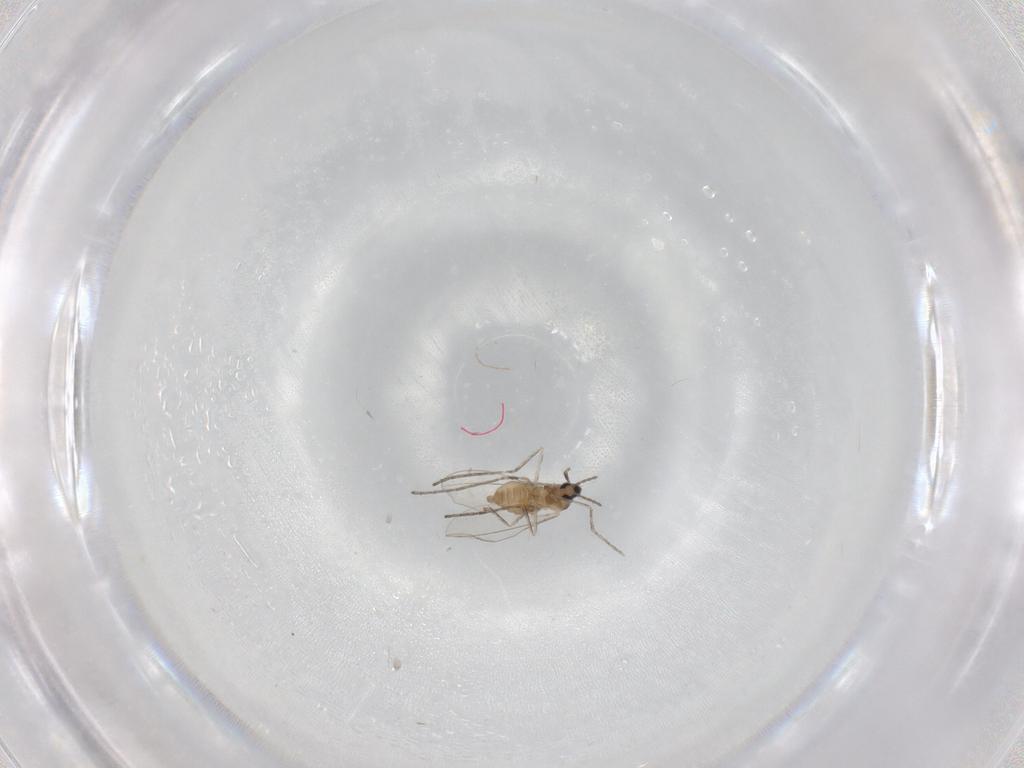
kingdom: Animalia
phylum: Arthropoda
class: Insecta
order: Diptera
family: Cecidomyiidae
